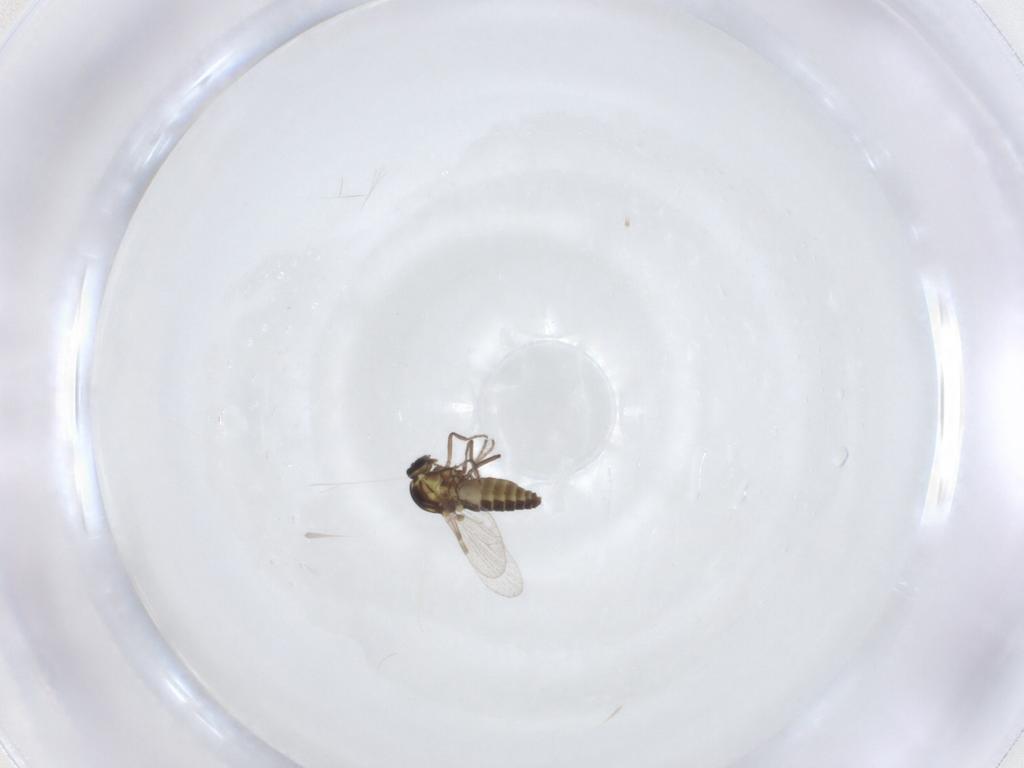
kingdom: Animalia
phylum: Arthropoda
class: Insecta
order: Diptera
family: Ceratopogonidae
